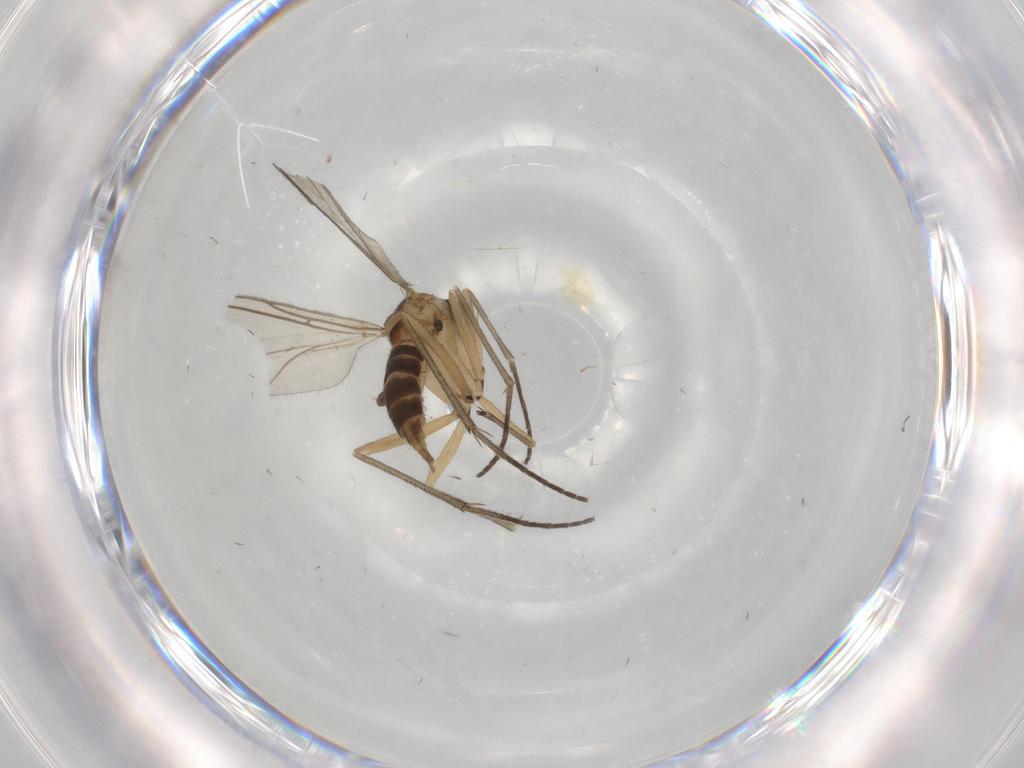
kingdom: Animalia
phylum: Arthropoda
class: Insecta
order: Diptera
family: Sciaridae
